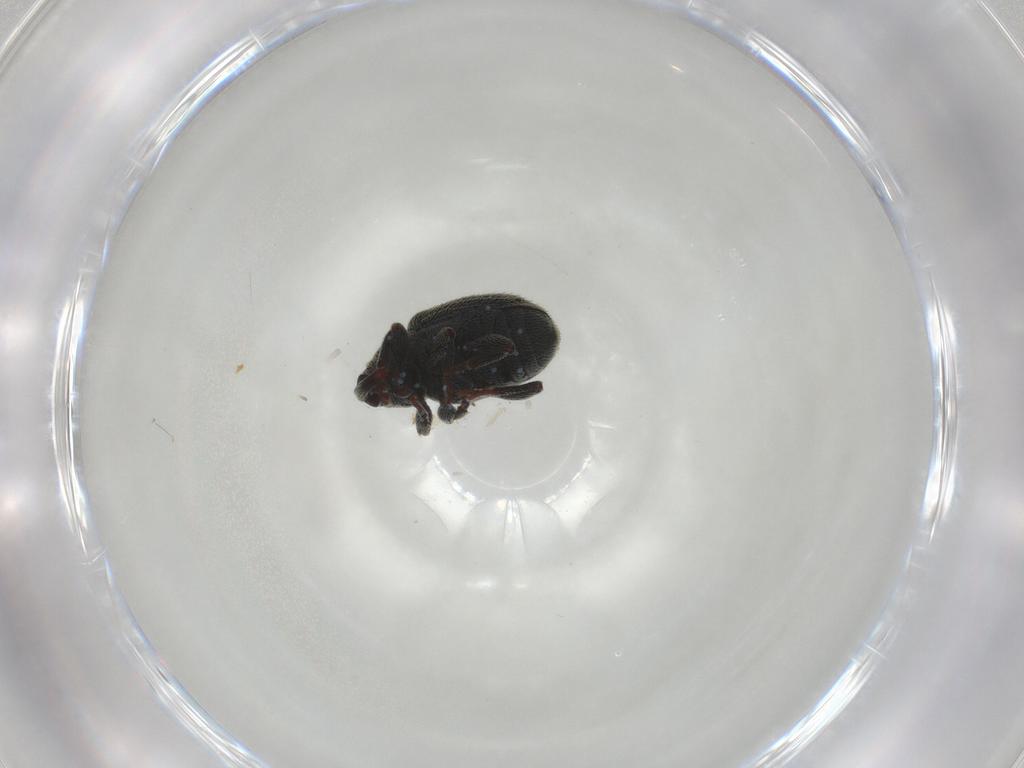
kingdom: Animalia
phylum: Arthropoda
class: Insecta
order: Coleoptera
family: Curculionidae
